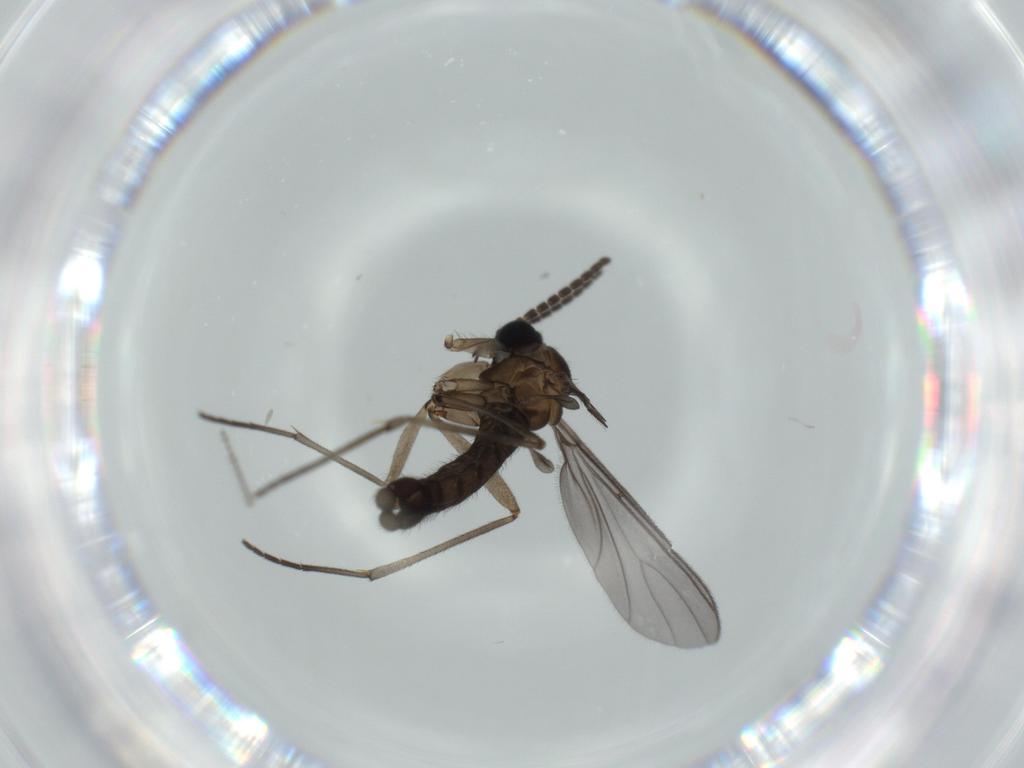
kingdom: Animalia
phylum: Arthropoda
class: Insecta
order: Diptera
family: Sciaridae
